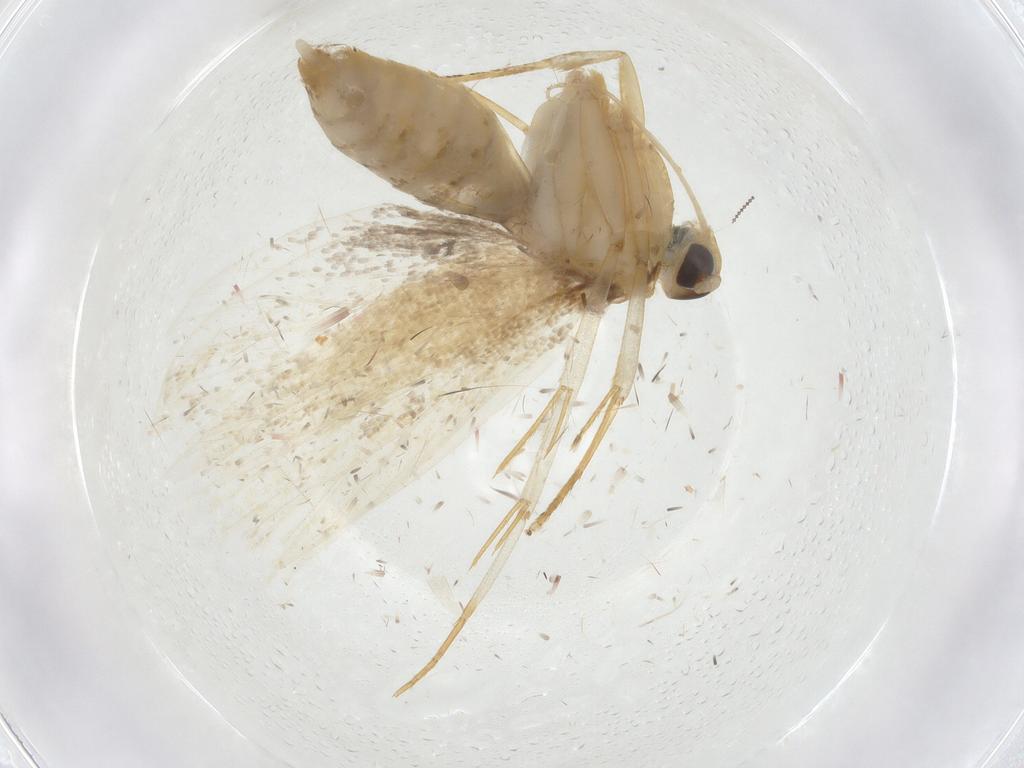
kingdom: Animalia
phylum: Arthropoda
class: Insecta
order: Lepidoptera
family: Lecithoceridae
